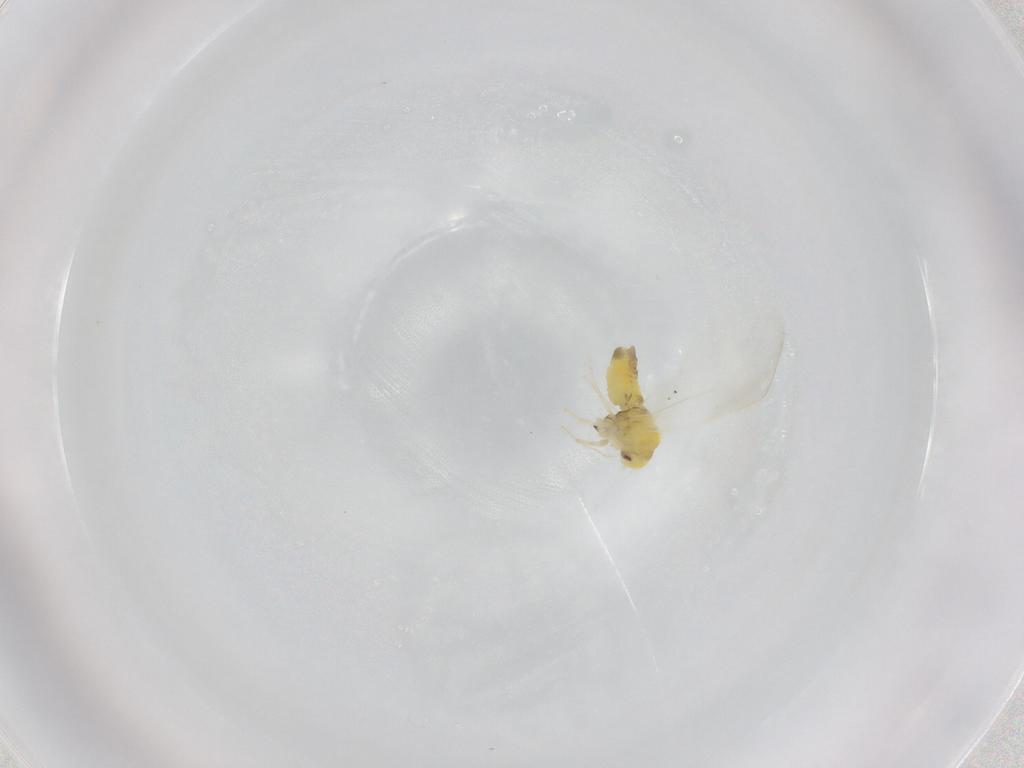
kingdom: Animalia
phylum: Arthropoda
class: Insecta
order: Hemiptera
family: Aleyrodidae
